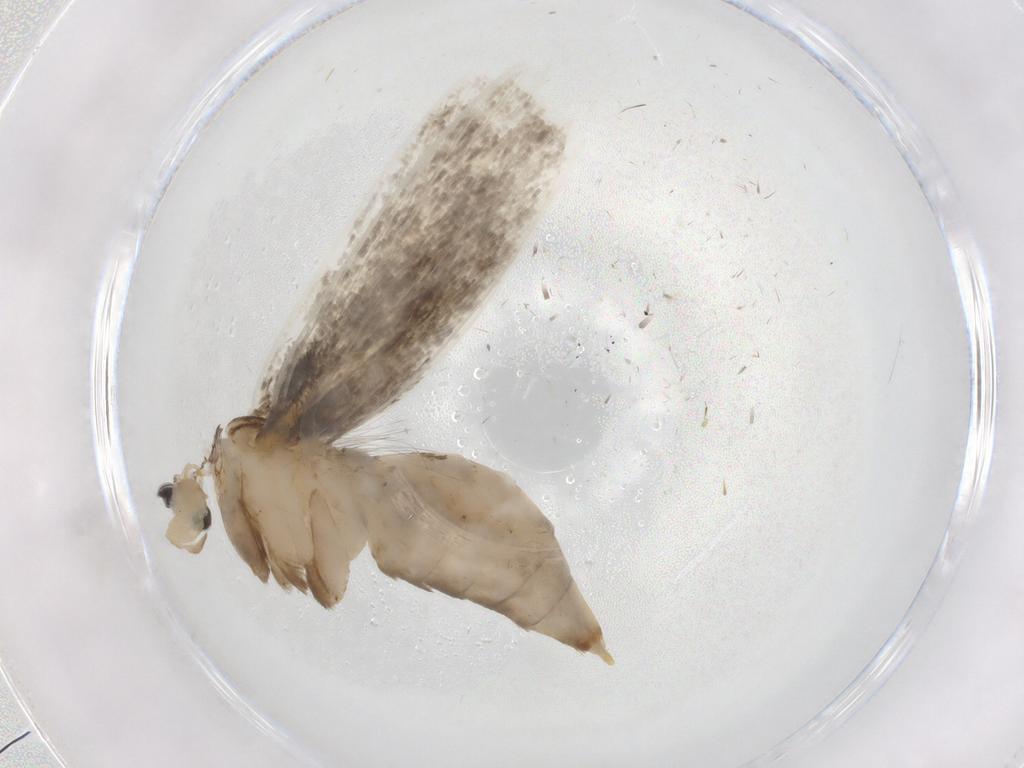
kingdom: Animalia
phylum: Arthropoda
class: Insecta
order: Lepidoptera
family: Tineidae
